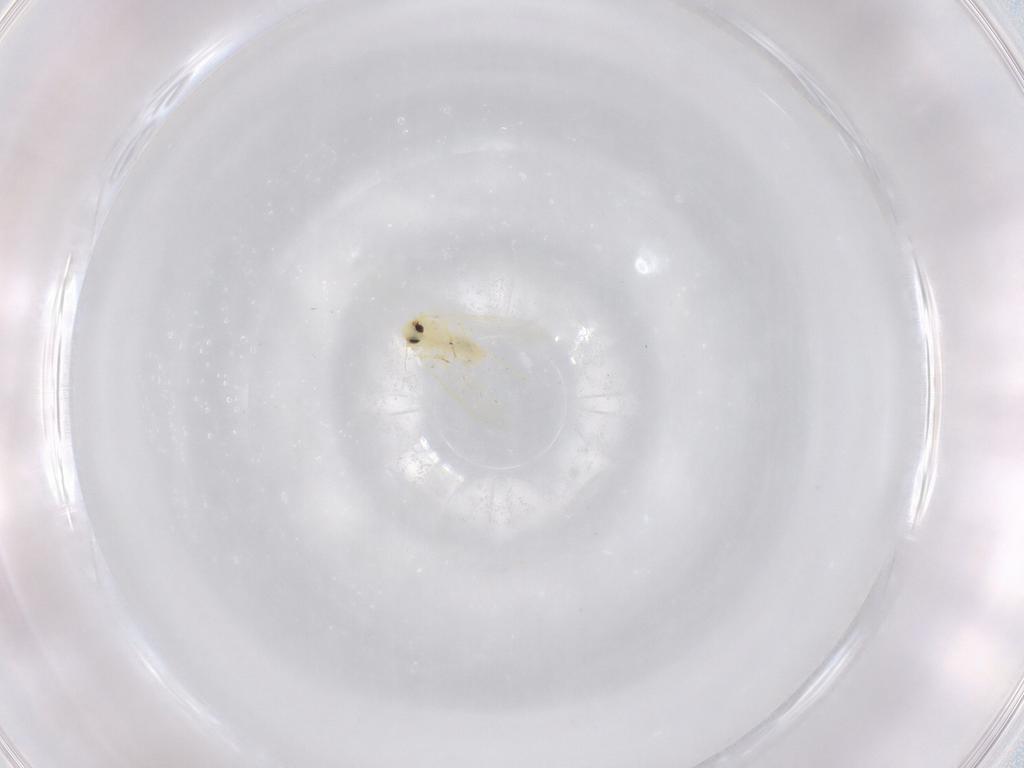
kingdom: Animalia
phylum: Arthropoda
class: Insecta
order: Hemiptera
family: Aleyrodidae
